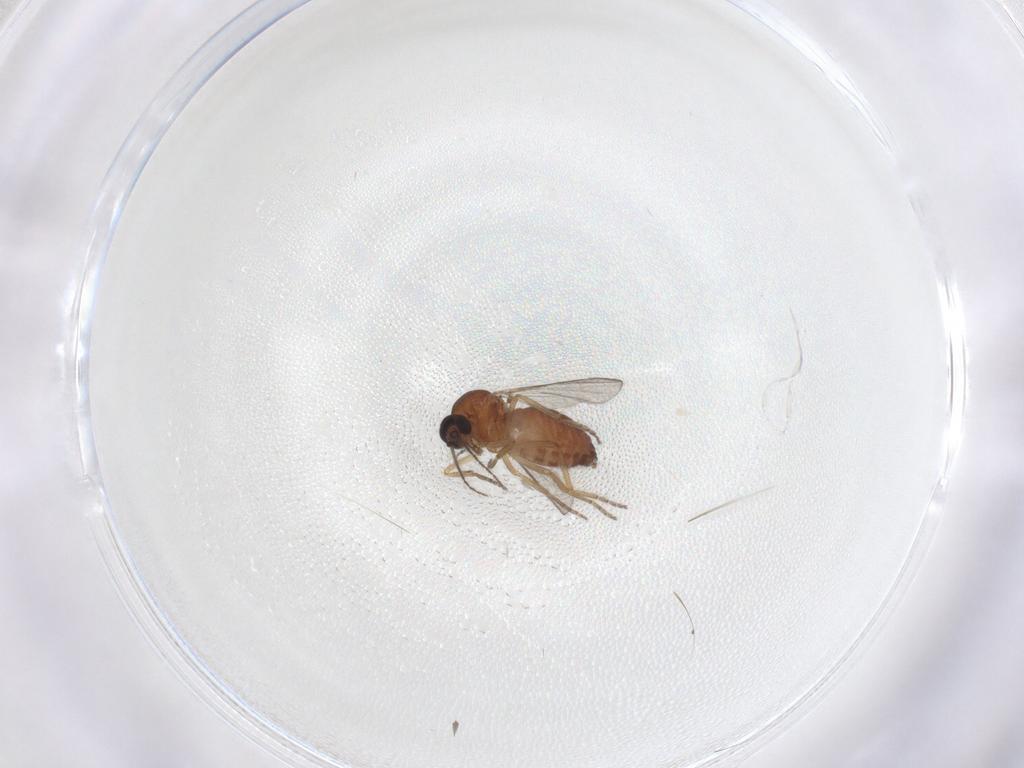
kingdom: Animalia
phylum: Arthropoda
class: Insecta
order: Diptera
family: Ceratopogonidae
